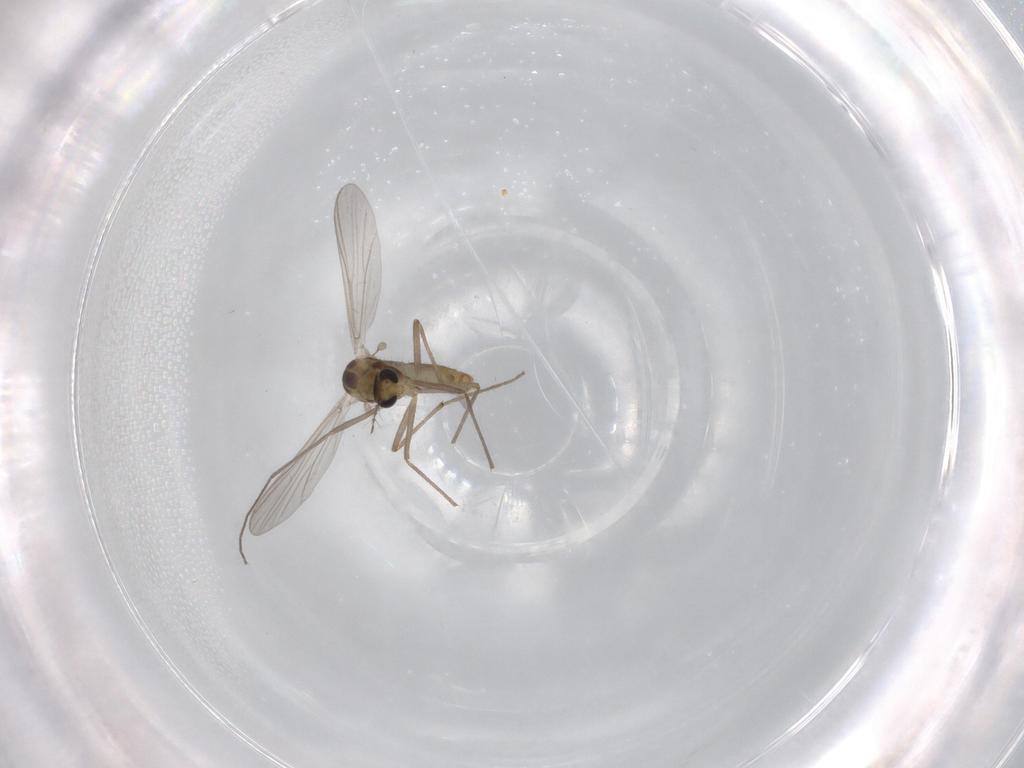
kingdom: Animalia
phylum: Arthropoda
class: Insecta
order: Diptera
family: Chironomidae
